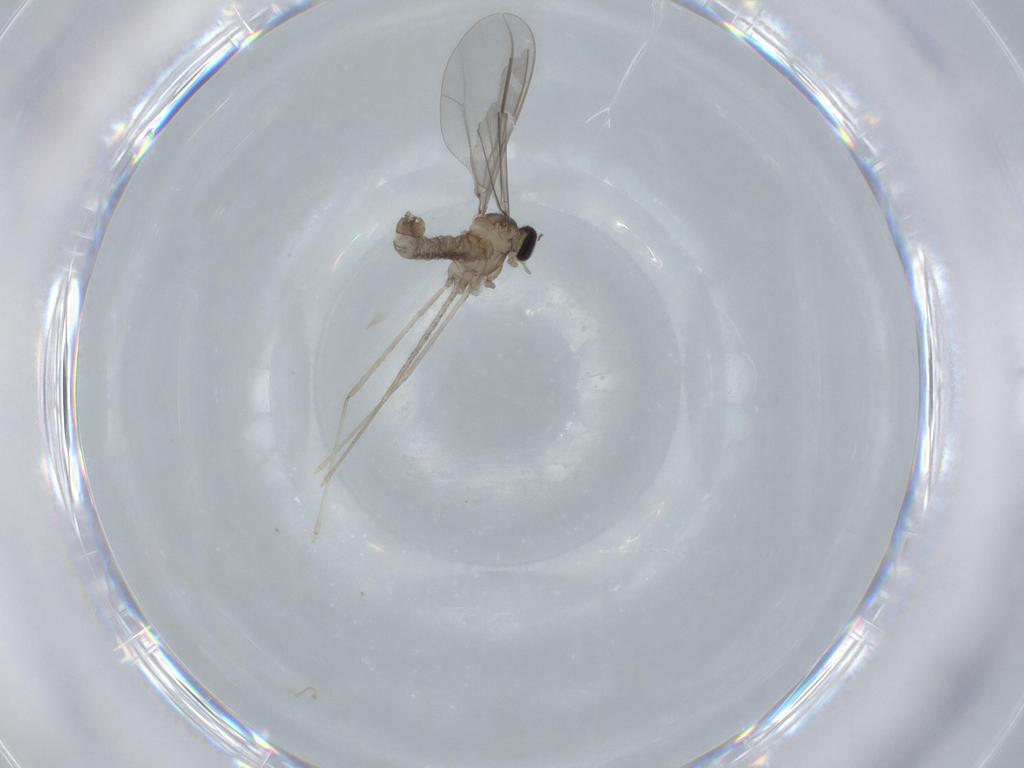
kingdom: Animalia
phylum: Arthropoda
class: Insecta
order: Diptera
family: Cecidomyiidae
